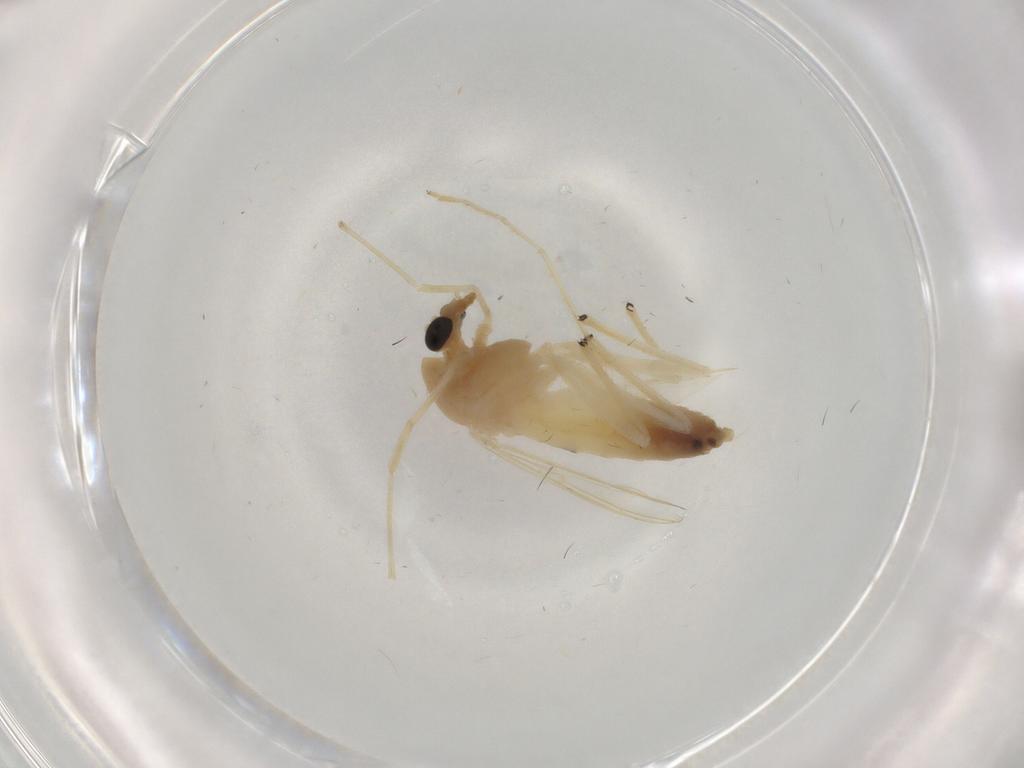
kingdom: Animalia
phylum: Arthropoda
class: Insecta
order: Diptera
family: Chironomidae
